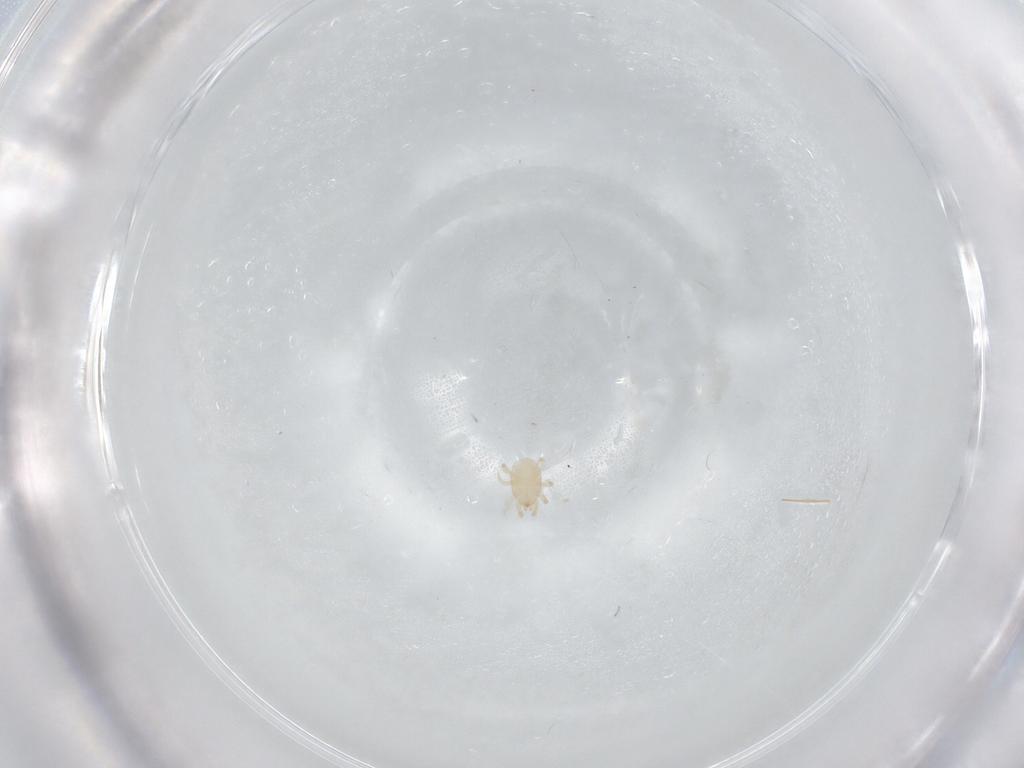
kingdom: Animalia
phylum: Arthropoda
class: Arachnida
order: Mesostigmata
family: Melicharidae
